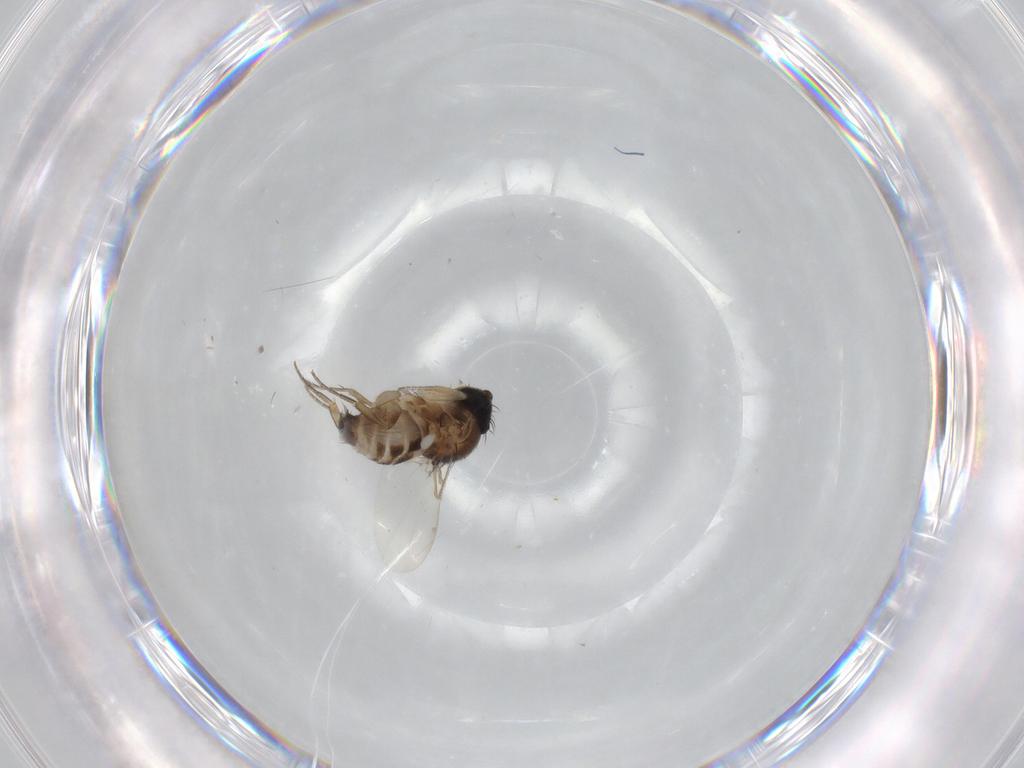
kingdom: Animalia
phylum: Arthropoda
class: Insecta
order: Diptera
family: Phoridae
